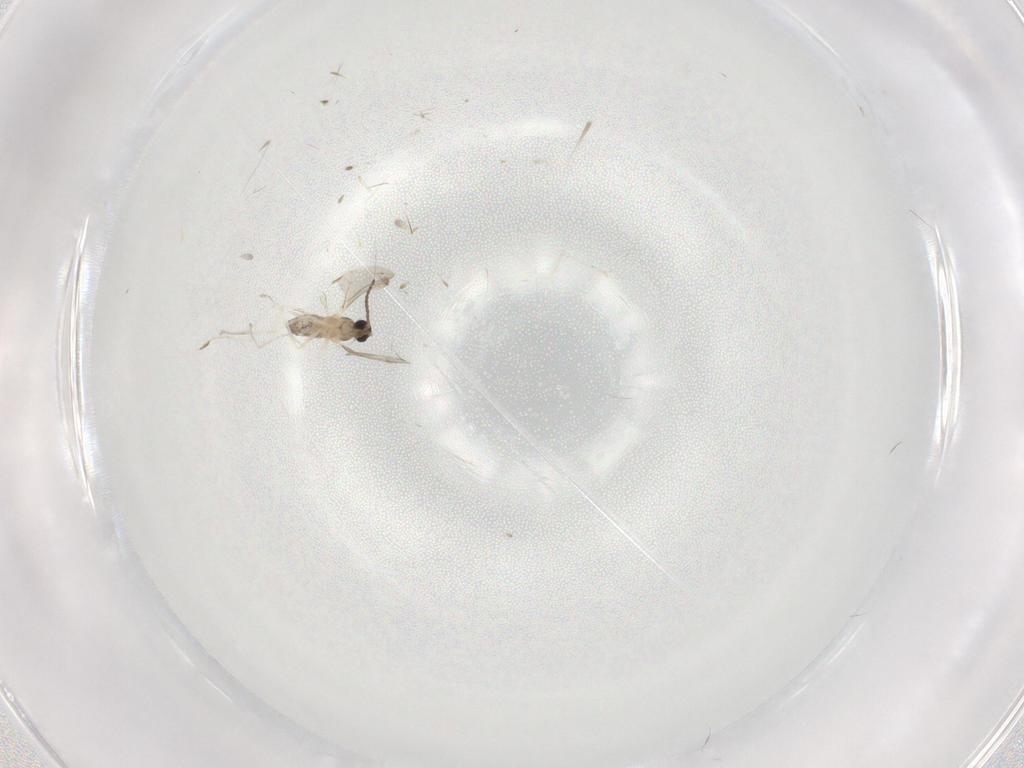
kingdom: Animalia
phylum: Arthropoda
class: Insecta
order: Diptera
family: Cecidomyiidae
